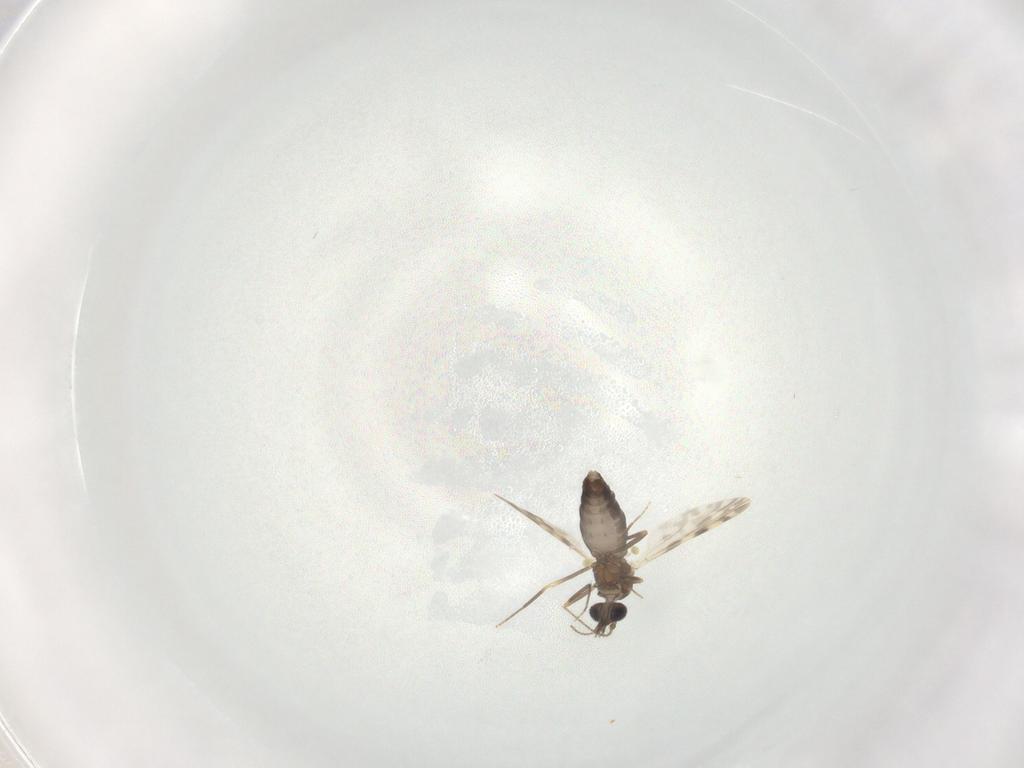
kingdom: Animalia
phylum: Arthropoda
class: Insecta
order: Diptera
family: Ceratopogonidae
